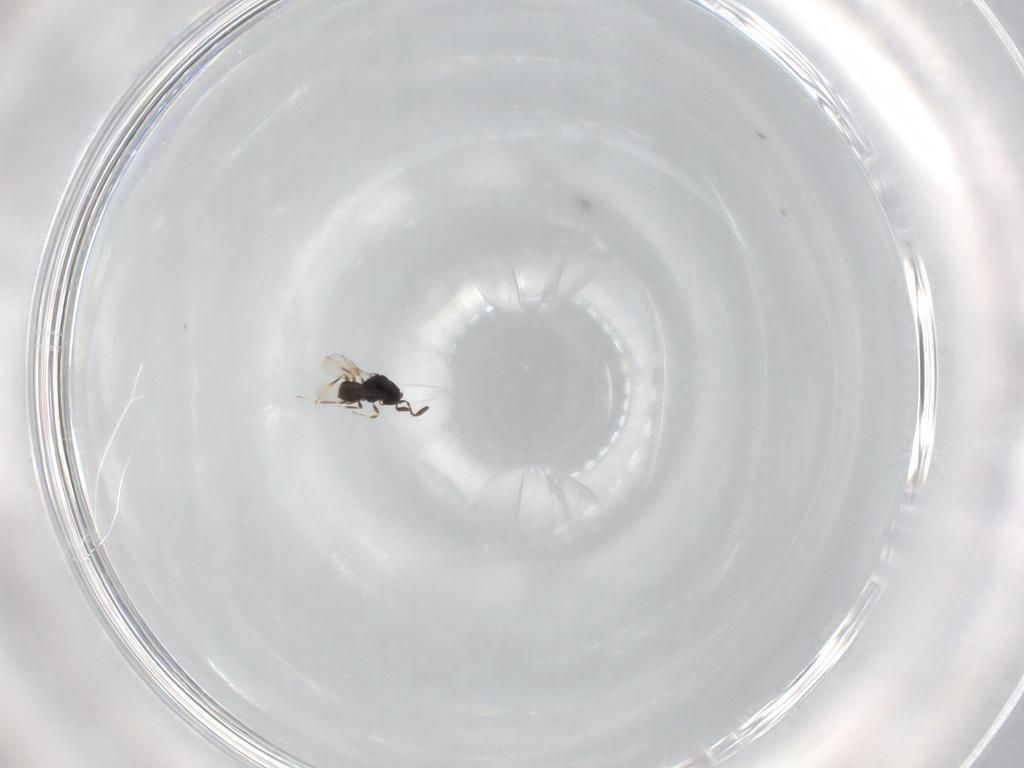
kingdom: Animalia
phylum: Arthropoda
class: Insecta
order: Hymenoptera
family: Scelionidae
